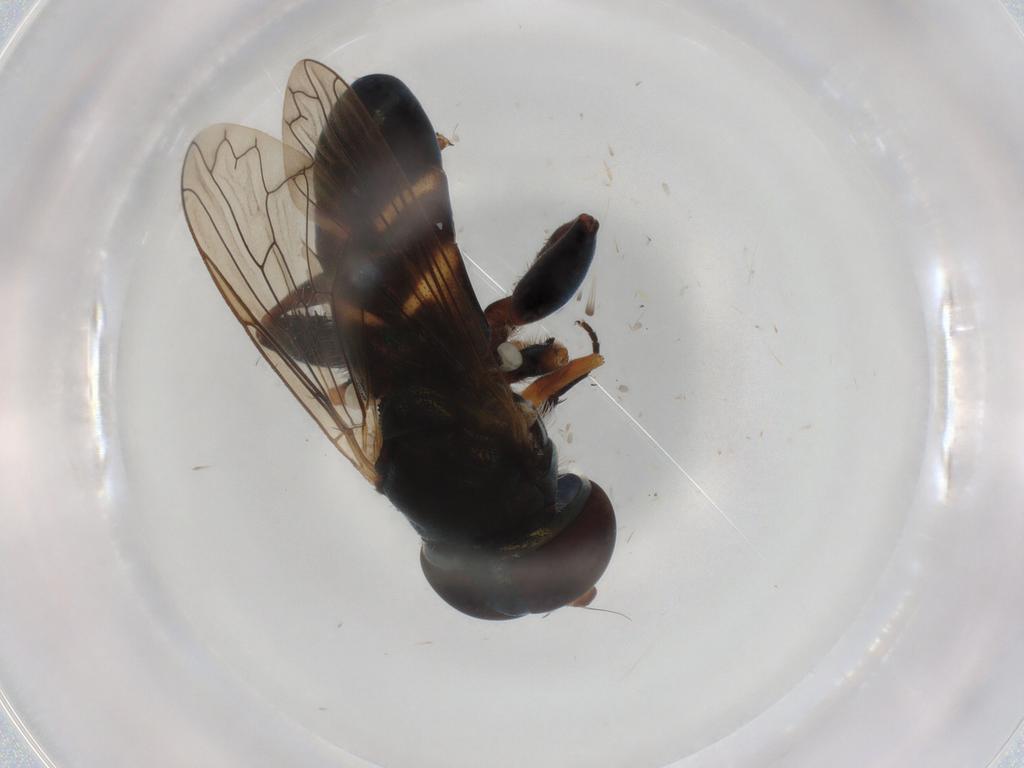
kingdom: Animalia
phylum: Arthropoda
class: Insecta
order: Diptera
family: Syrphidae
